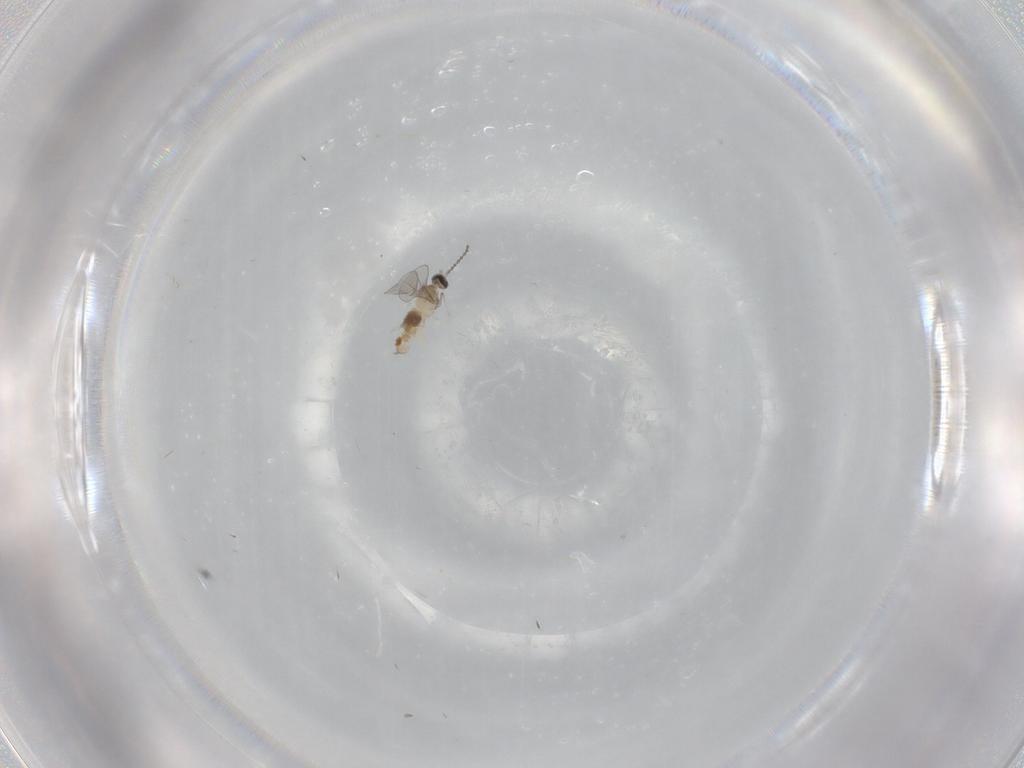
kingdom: Animalia
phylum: Arthropoda
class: Insecta
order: Diptera
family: Cecidomyiidae
